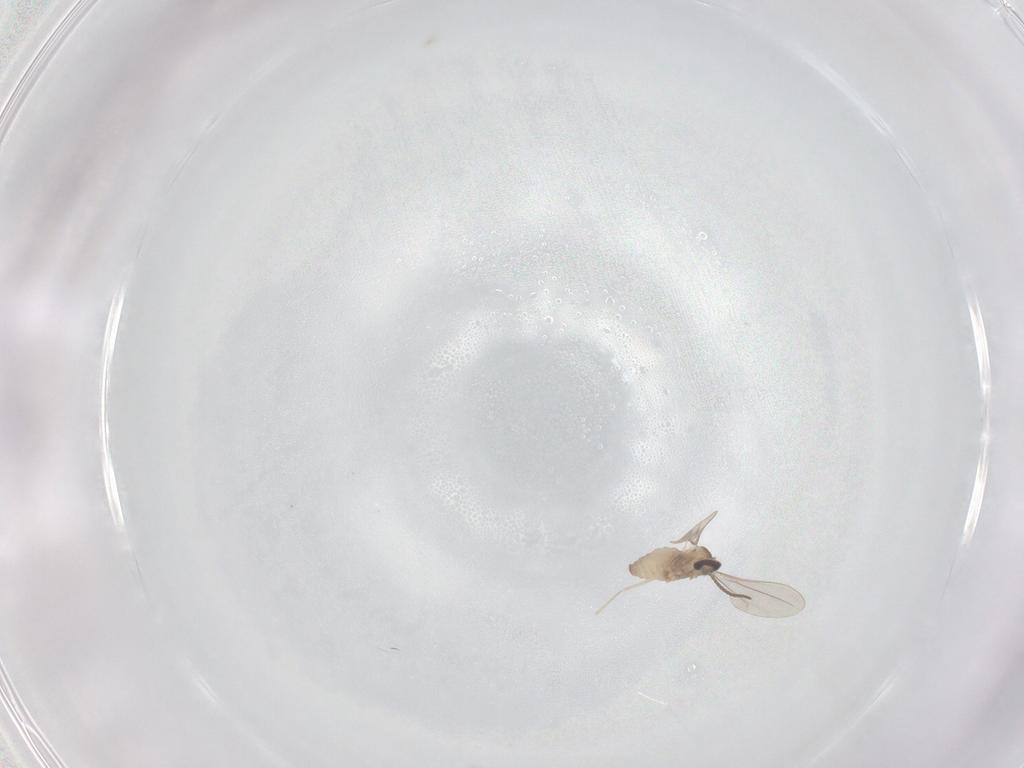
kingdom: Animalia
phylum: Arthropoda
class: Insecta
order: Diptera
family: Cecidomyiidae
